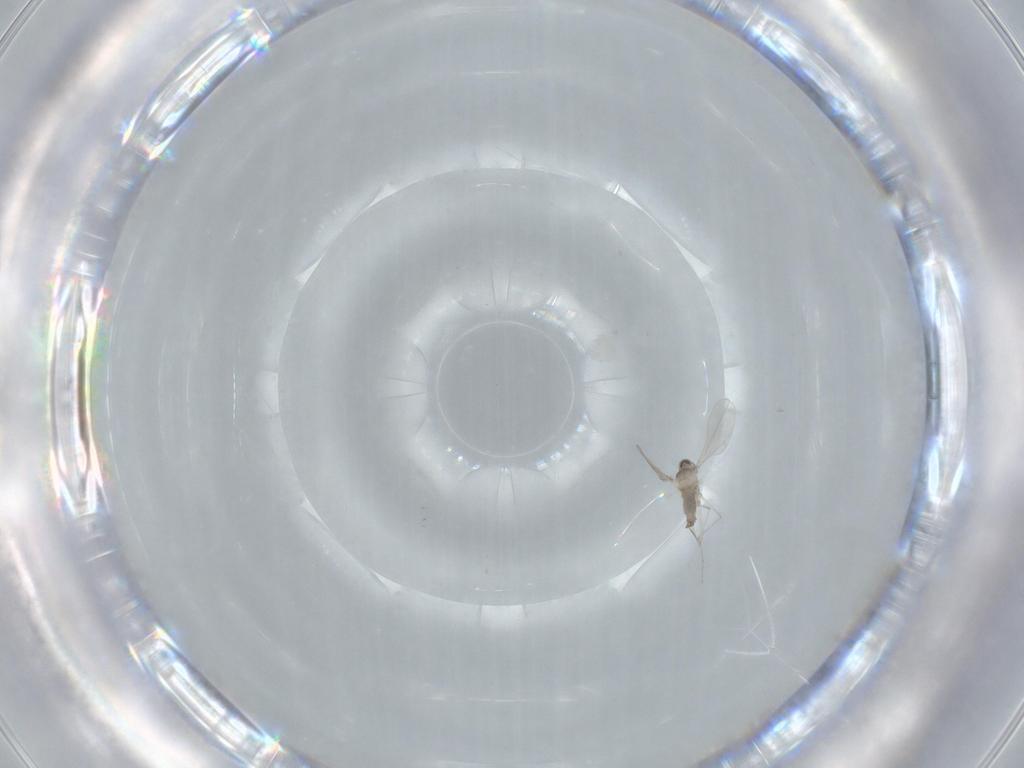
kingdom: Animalia
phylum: Arthropoda
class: Insecta
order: Diptera
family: Cecidomyiidae
